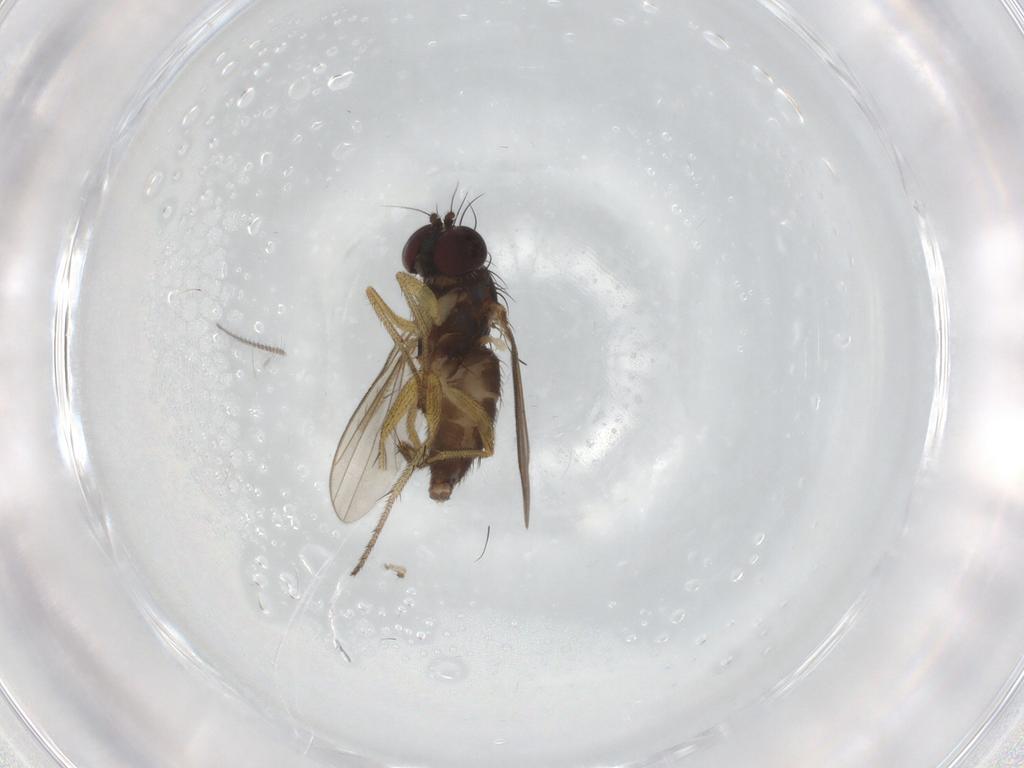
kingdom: Animalia
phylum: Arthropoda
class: Insecta
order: Diptera
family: Dolichopodidae
